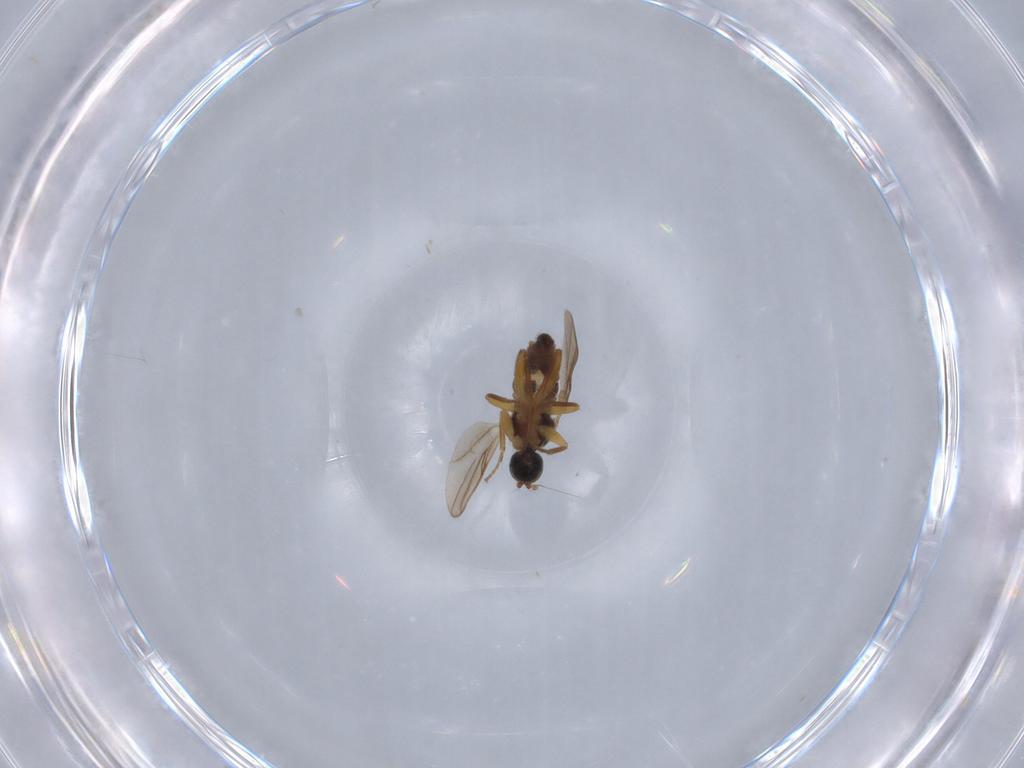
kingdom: Animalia
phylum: Arthropoda
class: Insecta
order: Diptera
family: Hybotidae
